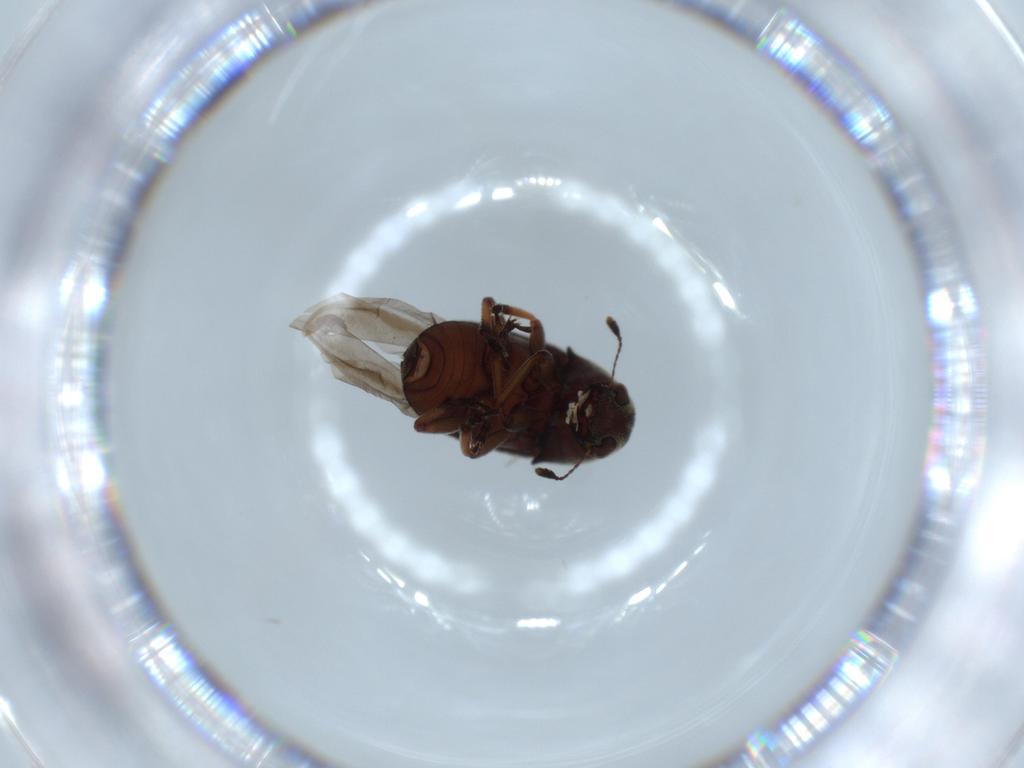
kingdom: Animalia
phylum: Arthropoda
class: Insecta
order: Coleoptera
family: Anthribidae
